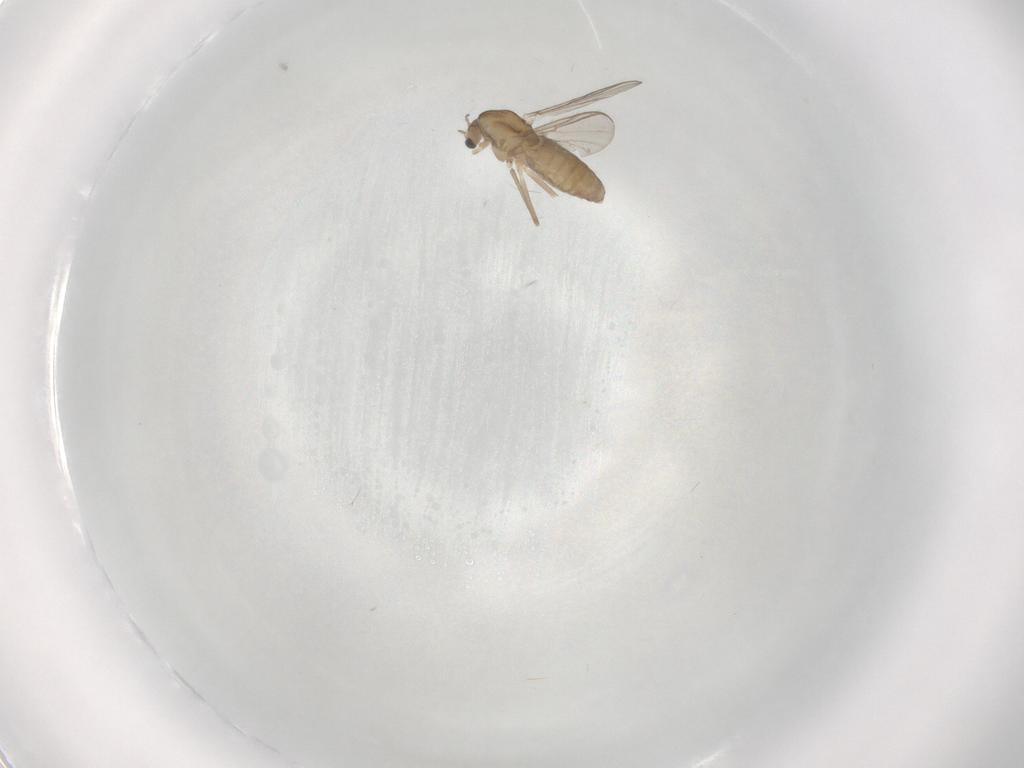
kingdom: Animalia
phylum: Arthropoda
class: Insecta
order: Diptera
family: Chironomidae
